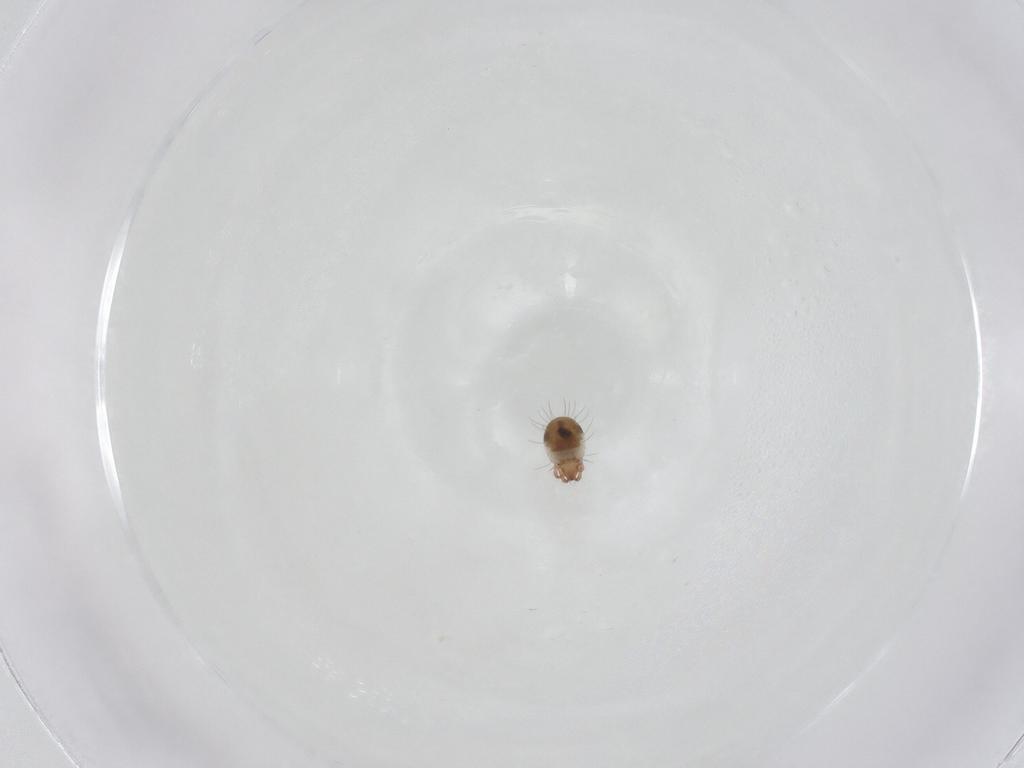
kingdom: Animalia
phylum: Arthropoda
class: Arachnida
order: Sarcoptiformes
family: Ceratozetidae
